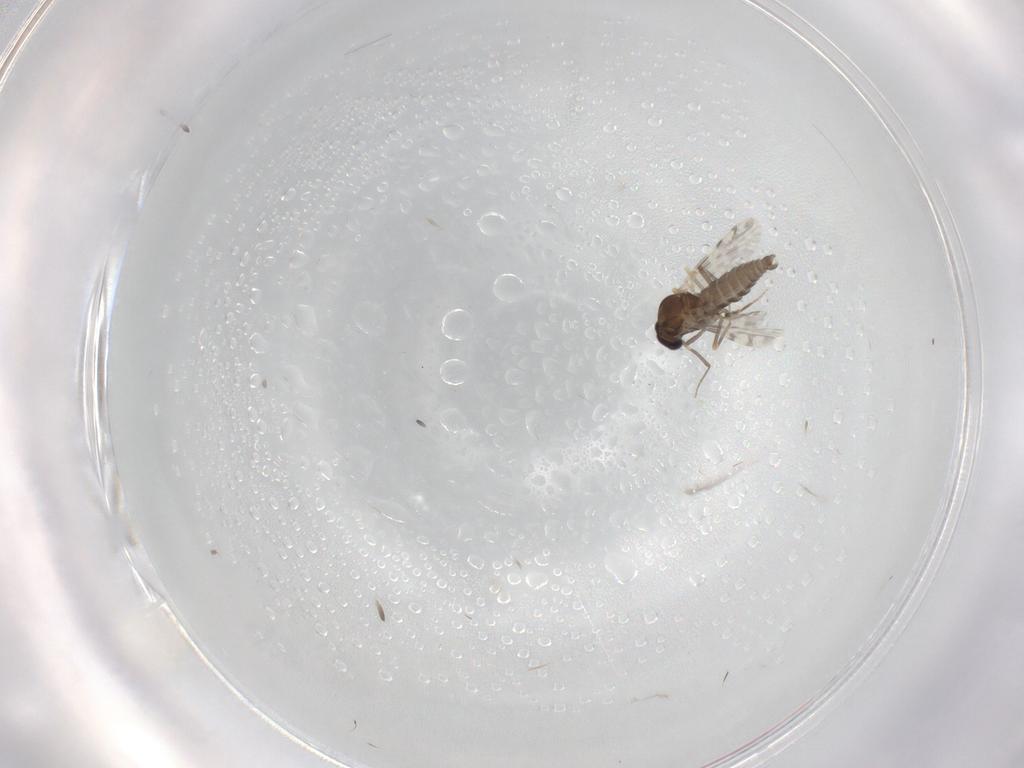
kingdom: Animalia
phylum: Arthropoda
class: Insecta
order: Diptera
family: Ceratopogonidae
